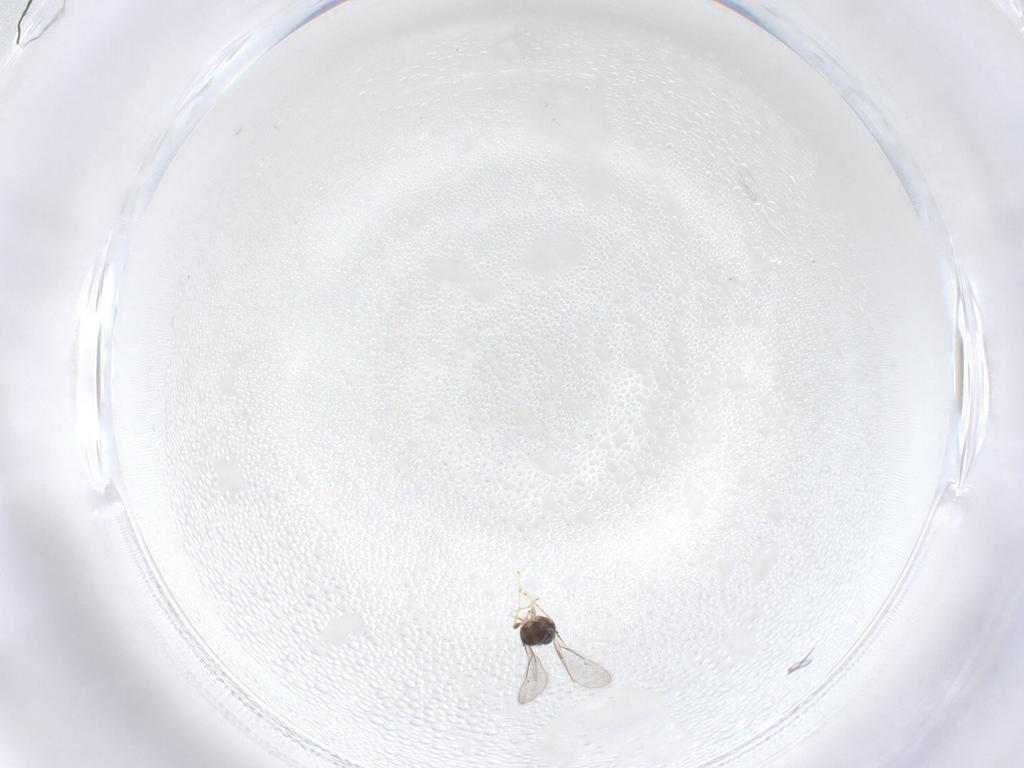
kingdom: Animalia
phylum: Arthropoda
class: Insecta
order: Hymenoptera
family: Eulophidae
